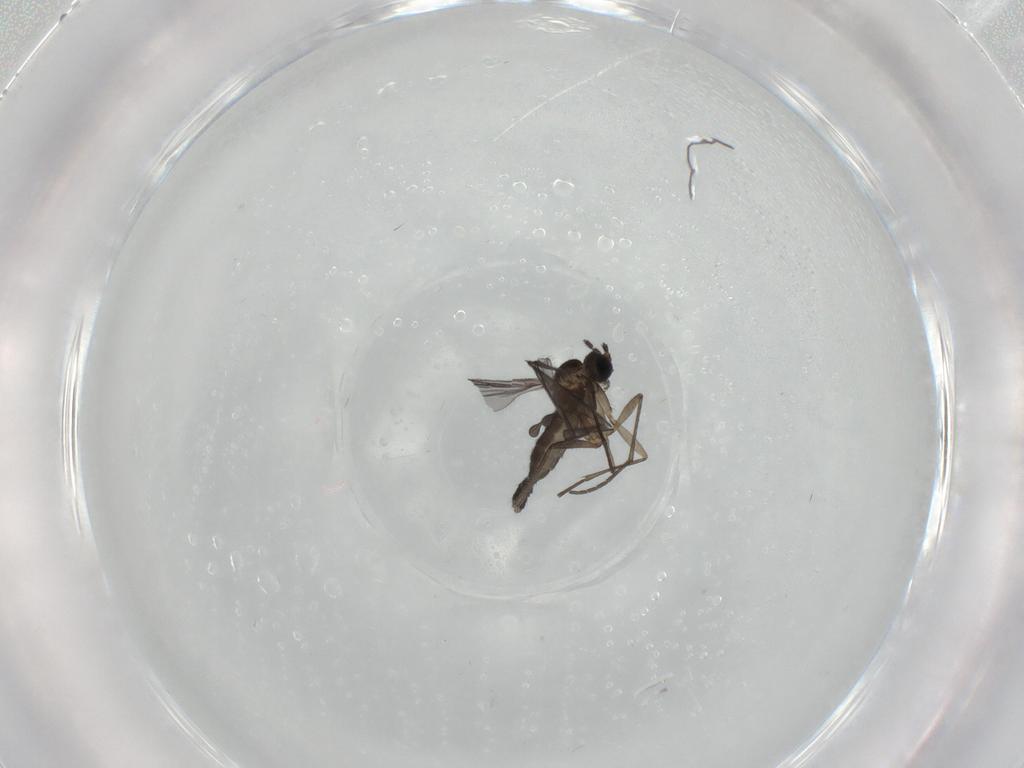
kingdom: Animalia
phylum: Arthropoda
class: Insecta
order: Diptera
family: Sciaridae
